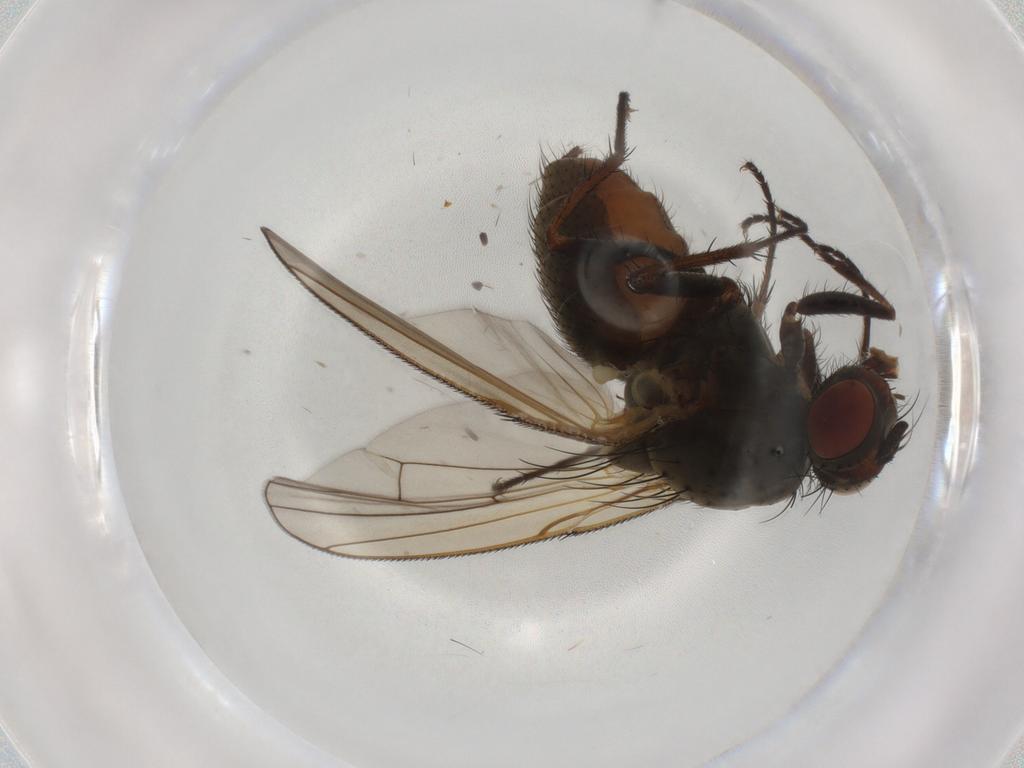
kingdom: Animalia
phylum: Arthropoda
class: Insecta
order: Diptera
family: Anthomyiidae
